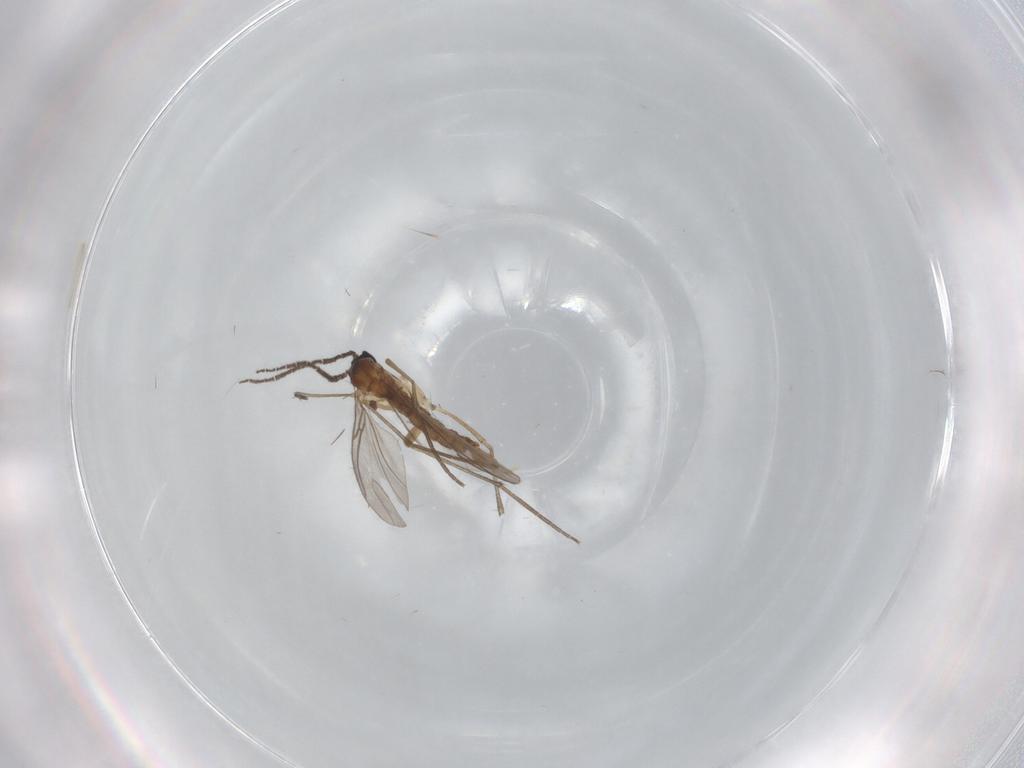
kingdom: Animalia
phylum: Arthropoda
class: Insecta
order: Diptera
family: Sciaridae
